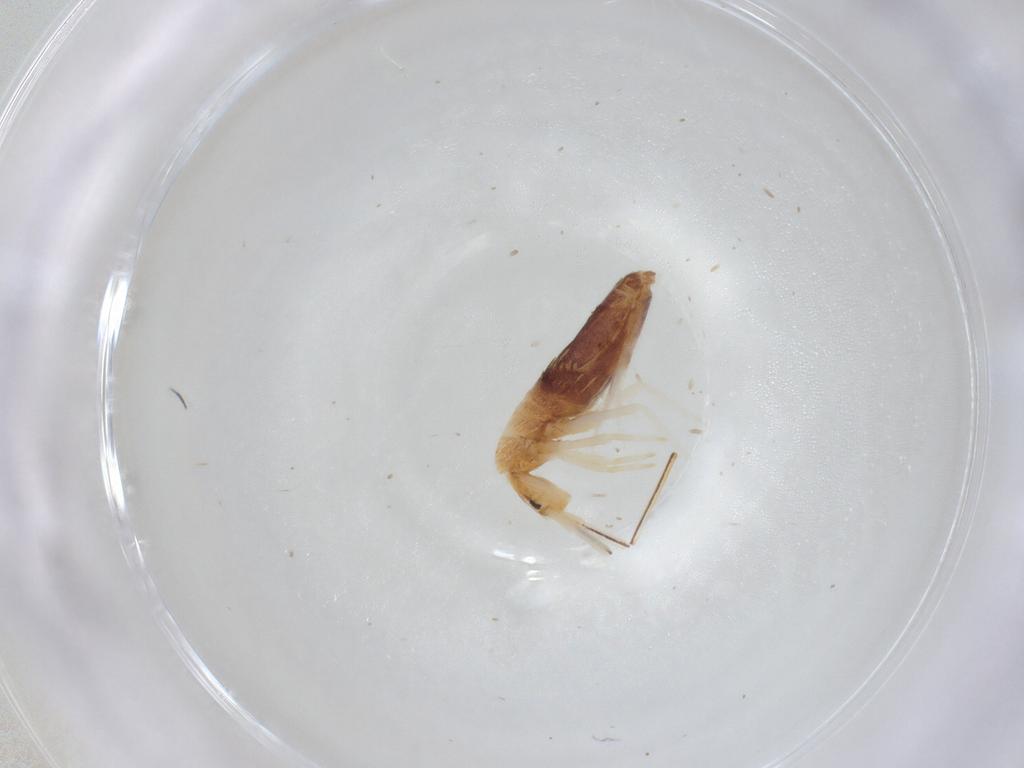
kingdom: Animalia
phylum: Arthropoda
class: Collembola
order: Entomobryomorpha
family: Entomobryidae
